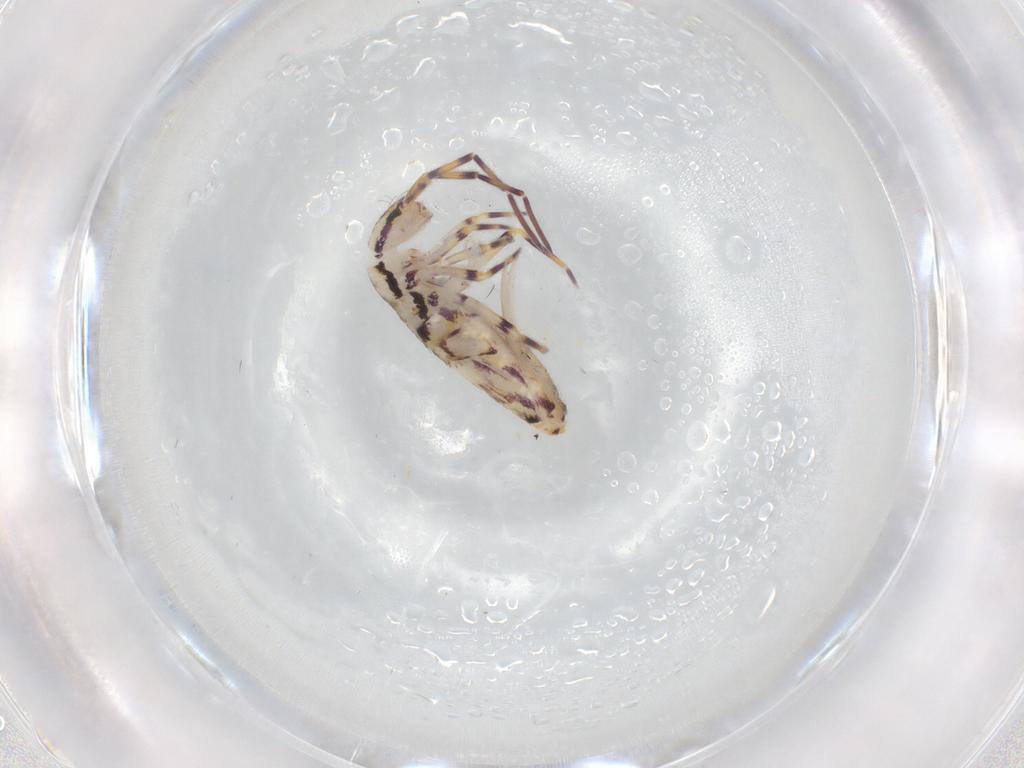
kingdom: Animalia
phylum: Arthropoda
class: Collembola
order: Entomobryomorpha
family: Entomobryidae
